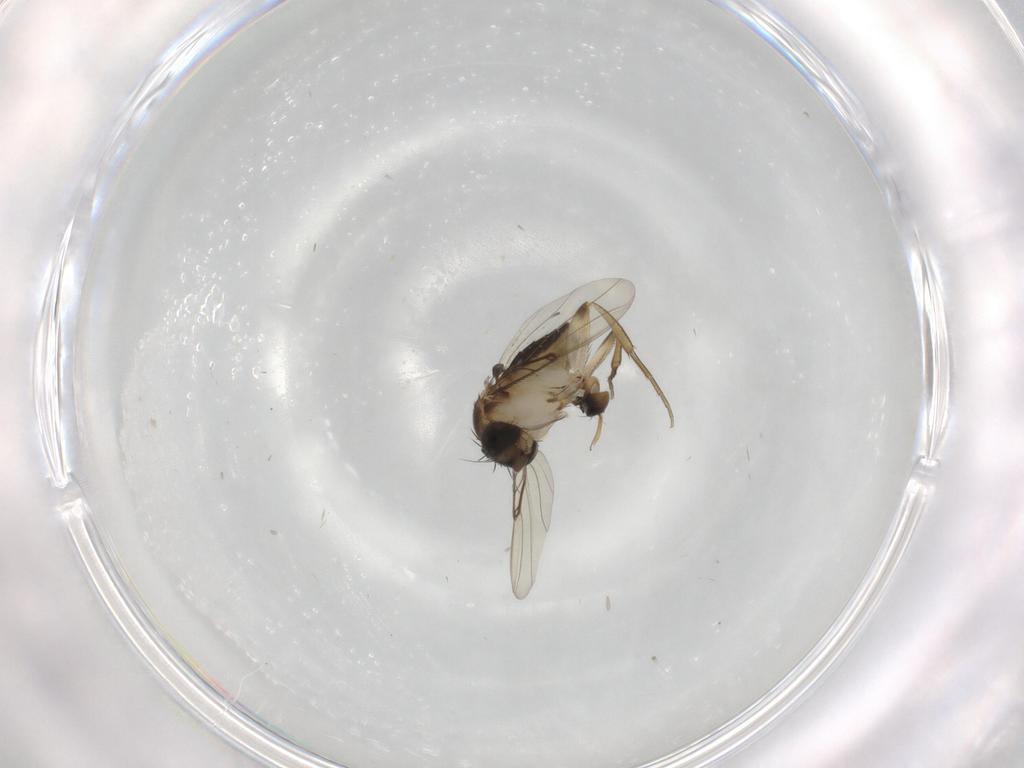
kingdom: Animalia
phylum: Arthropoda
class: Insecta
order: Diptera
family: Phoridae
